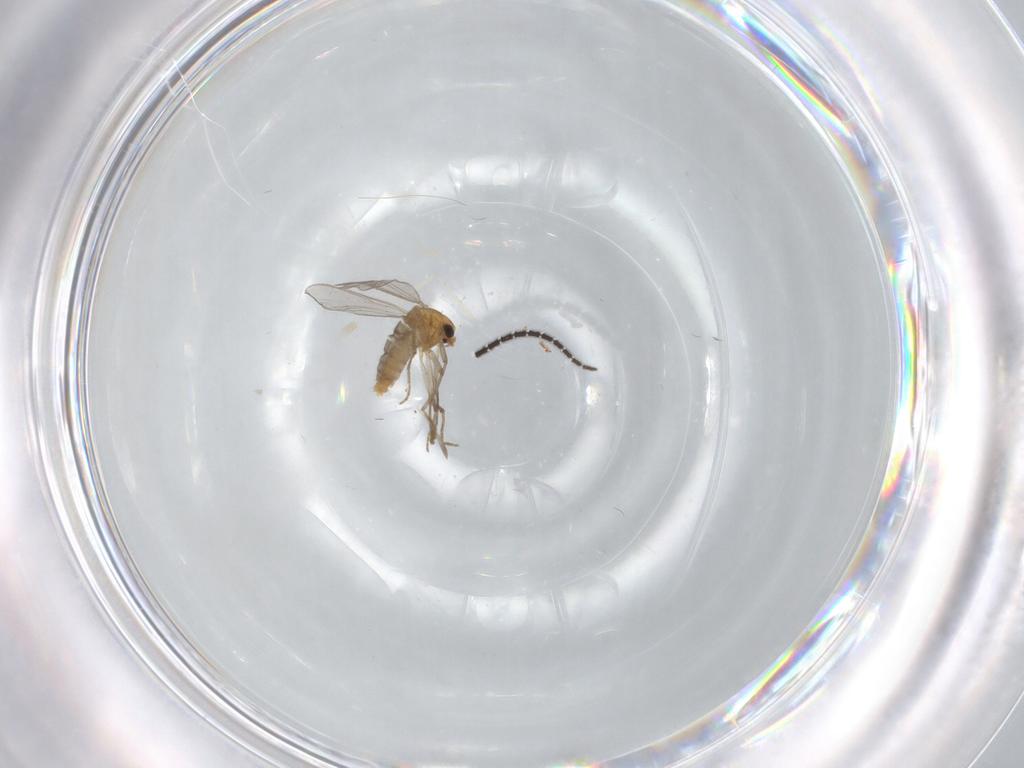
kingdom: Animalia
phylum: Arthropoda
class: Insecta
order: Diptera
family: Chironomidae
